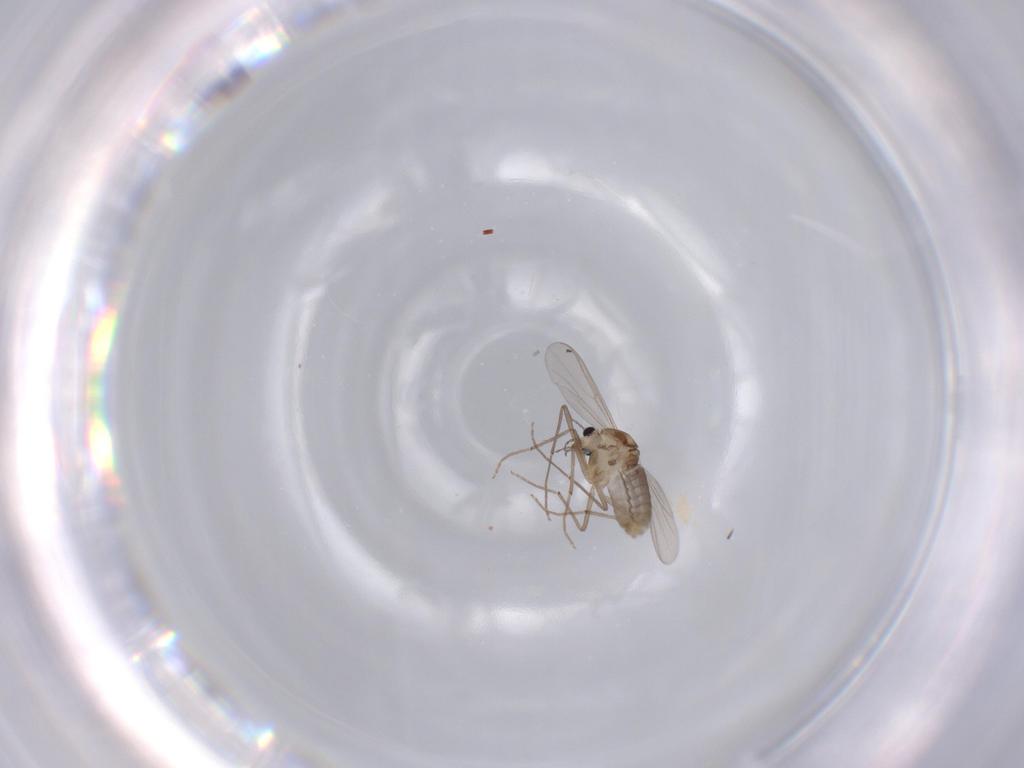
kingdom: Animalia
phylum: Arthropoda
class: Insecta
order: Diptera
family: Chironomidae
